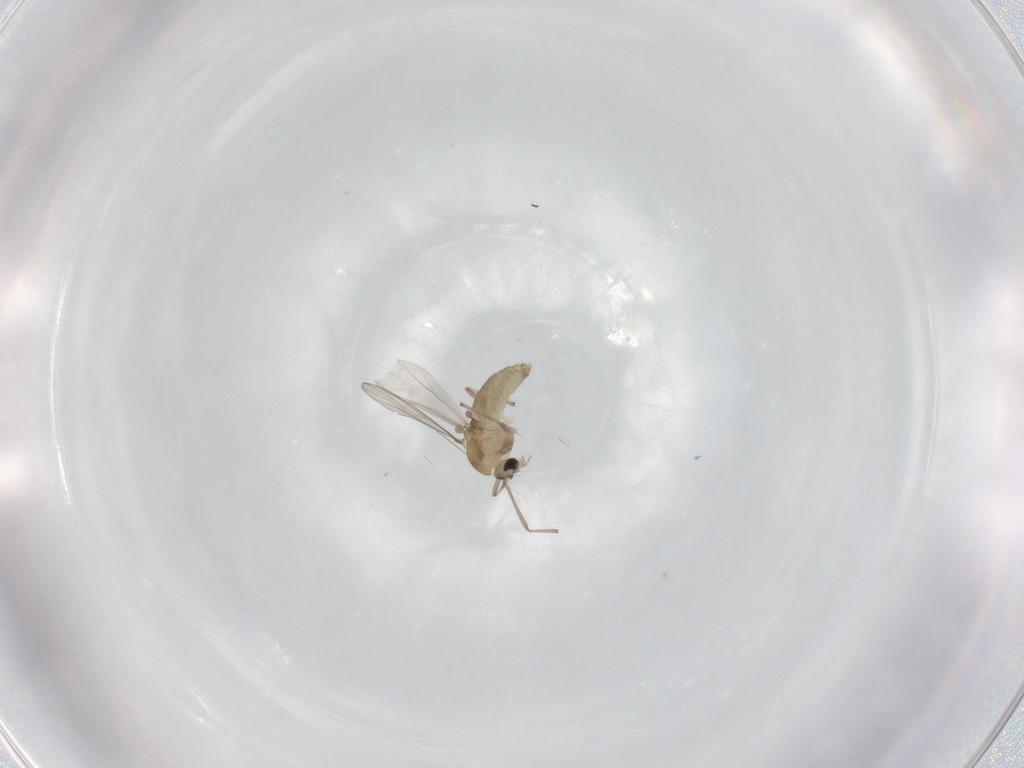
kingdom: Animalia
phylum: Arthropoda
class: Insecta
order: Diptera
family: Chironomidae
